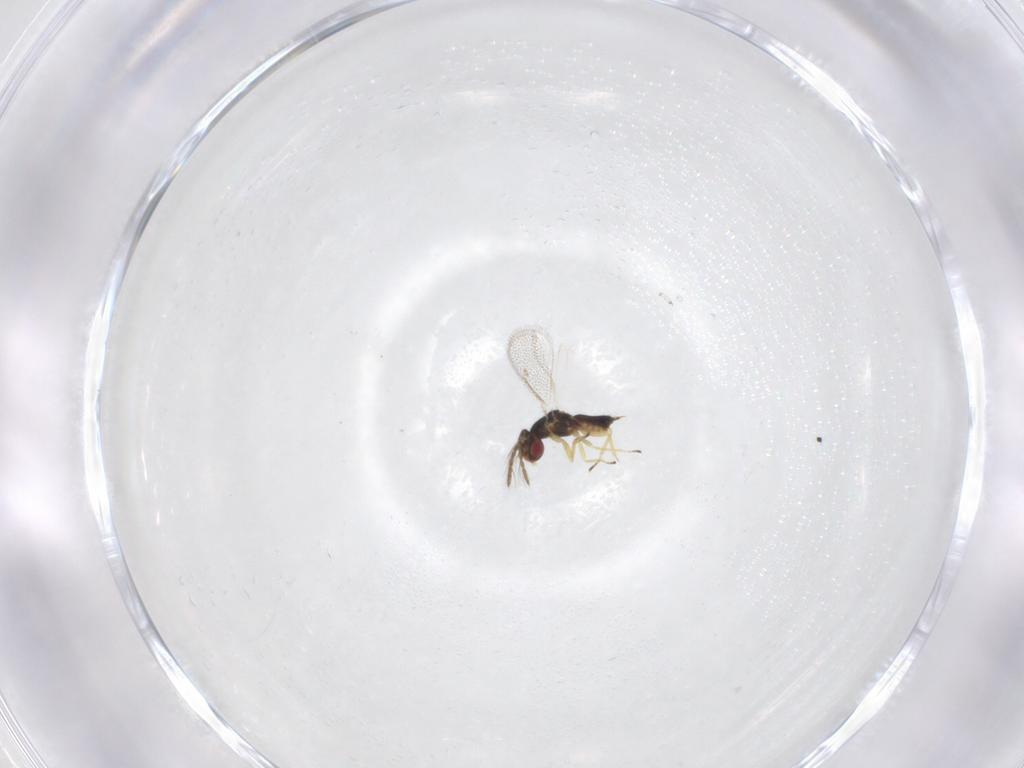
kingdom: Animalia
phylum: Arthropoda
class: Insecta
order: Hymenoptera
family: Eulophidae
